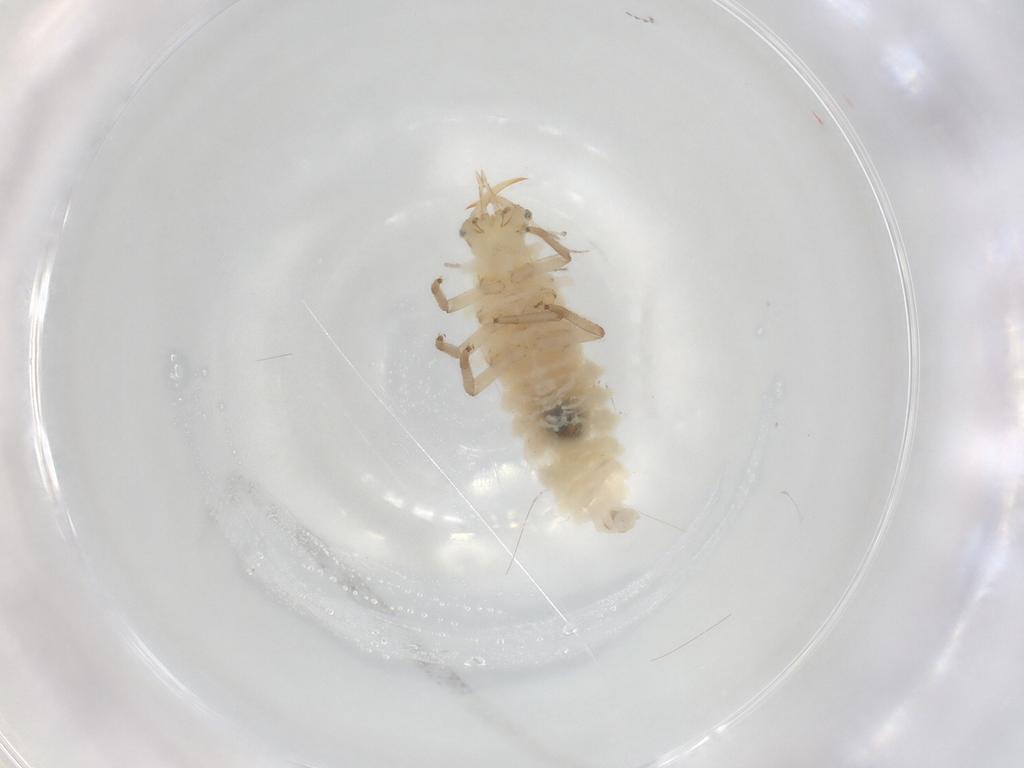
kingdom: Animalia
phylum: Arthropoda
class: Insecta
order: Neuroptera
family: Chrysopidae
